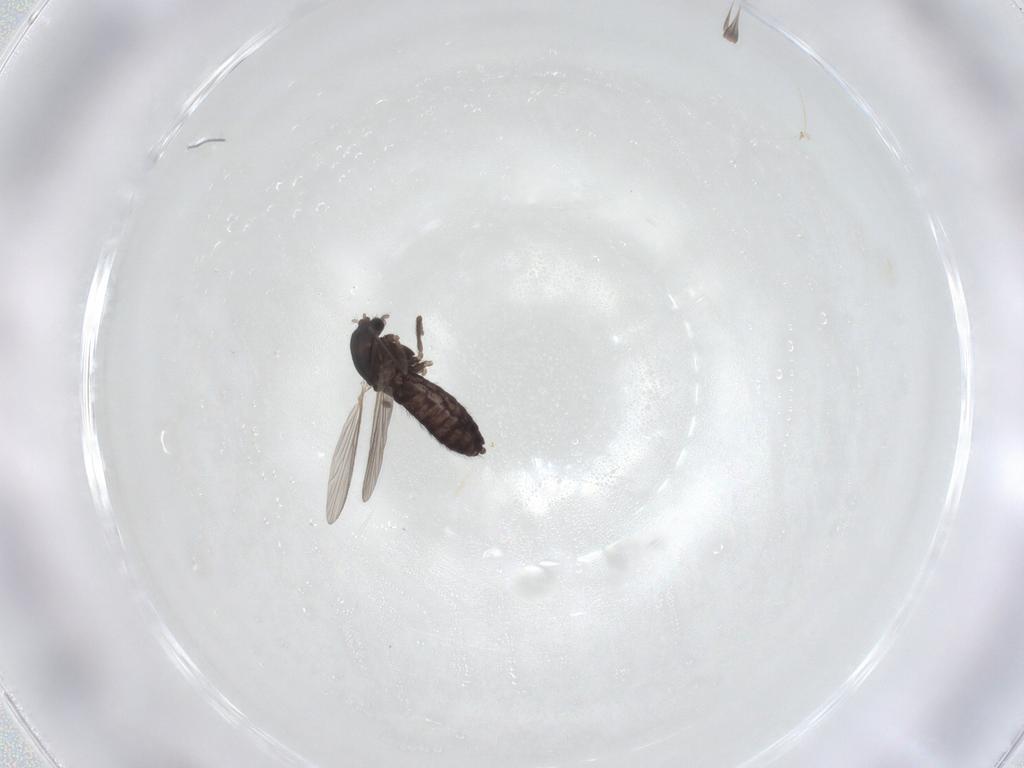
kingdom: Animalia
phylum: Arthropoda
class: Insecta
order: Diptera
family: Chironomidae
